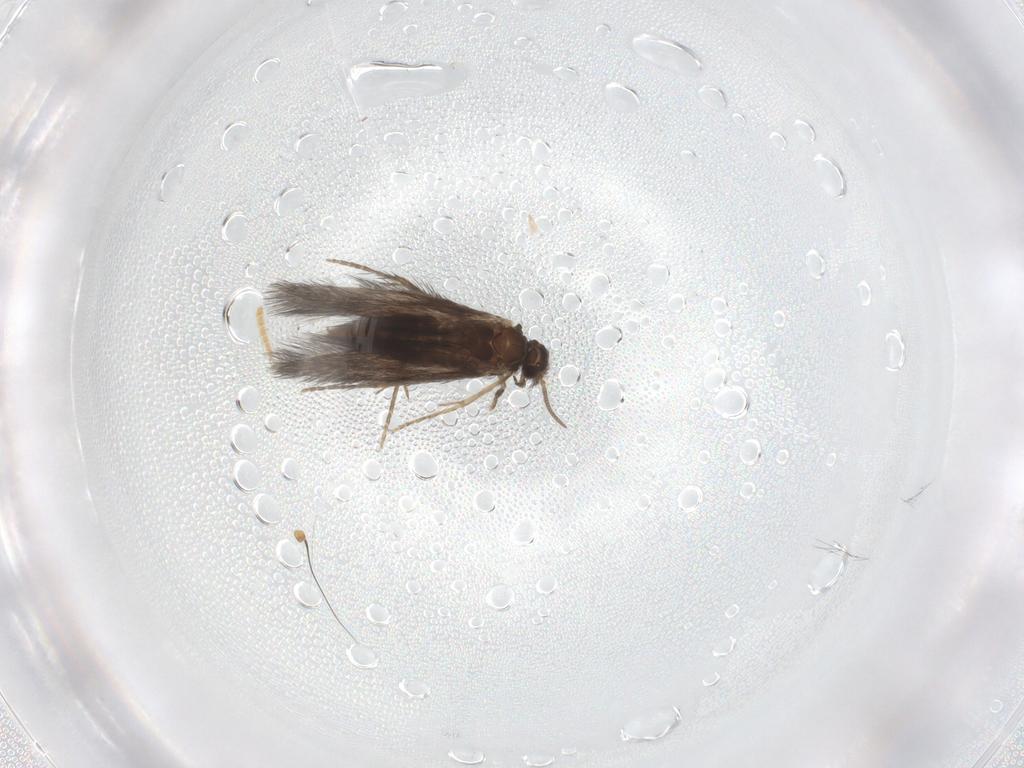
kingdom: Animalia
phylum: Arthropoda
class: Insecta
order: Trichoptera
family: Hydroptilidae
